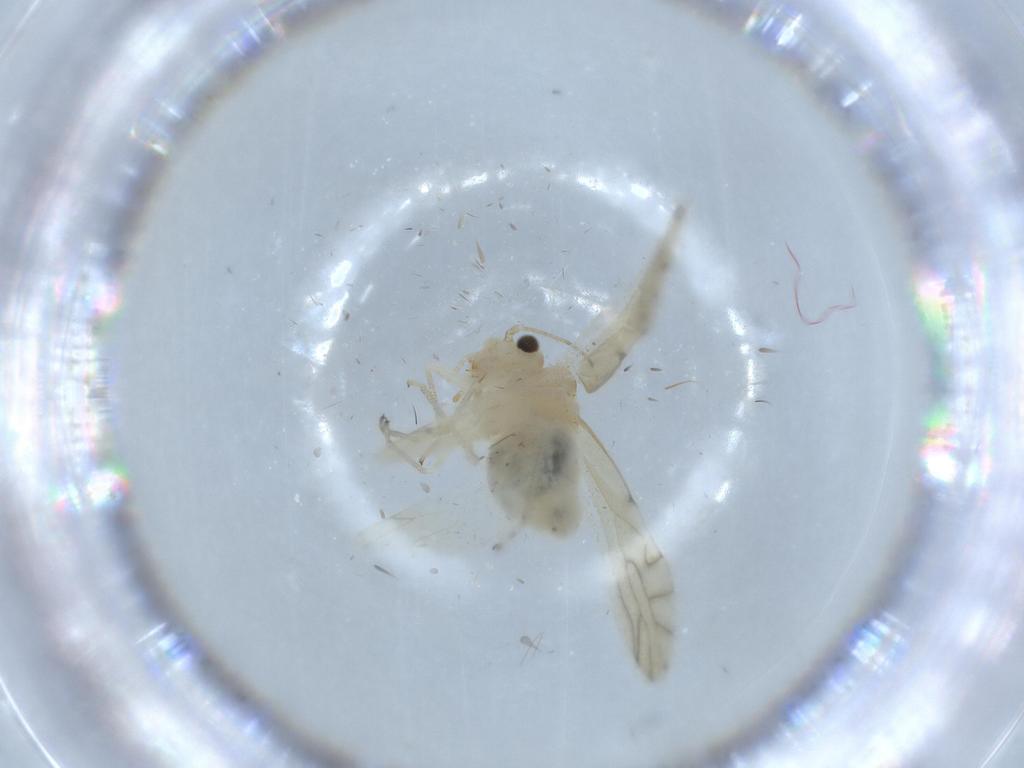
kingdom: Animalia
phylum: Arthropoda
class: Insecta
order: Psocodea
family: Caeciliusidae
